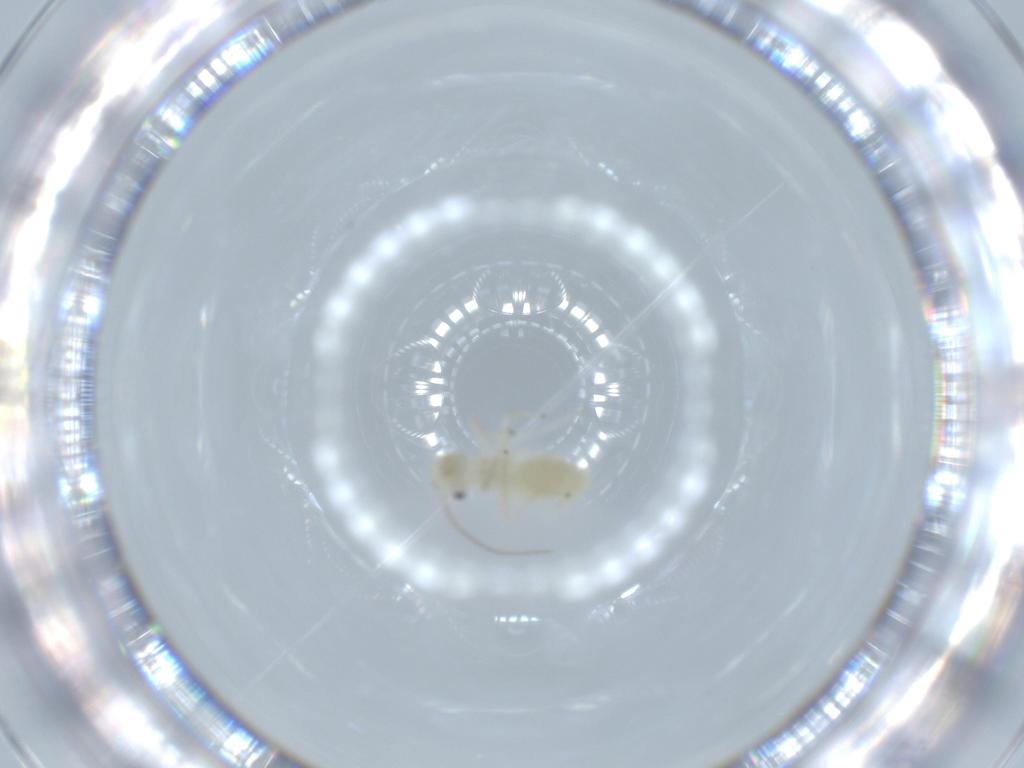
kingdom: Animalia
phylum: Arthropoda
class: Insecta
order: Psocodea
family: Caeciliusidae
